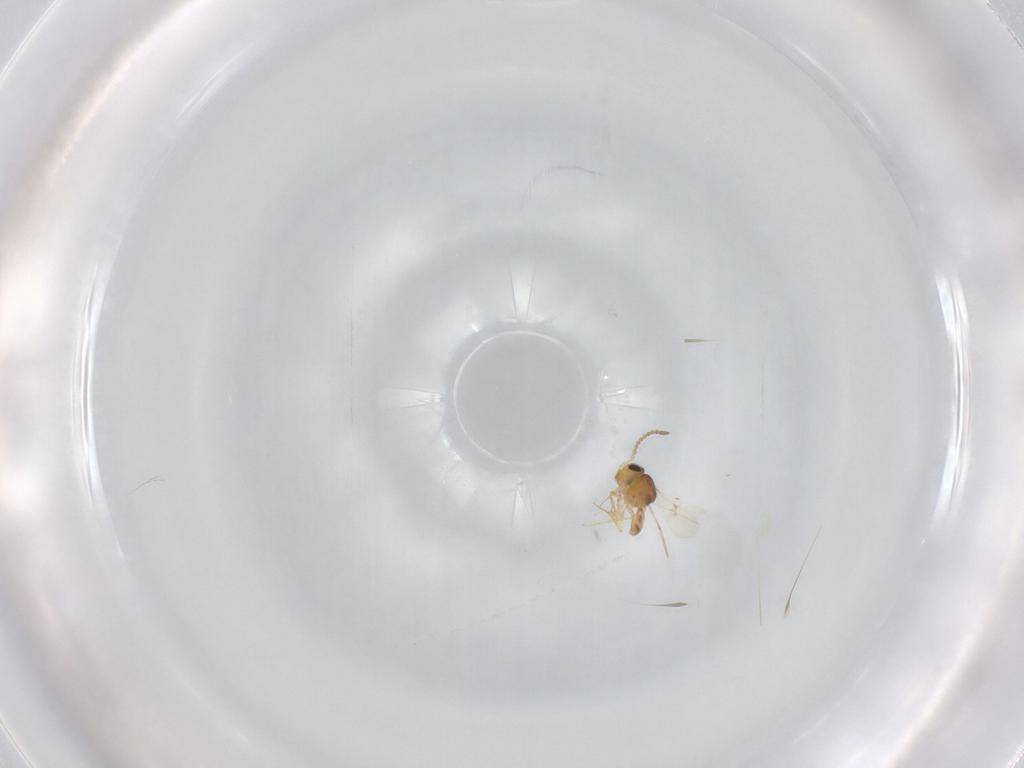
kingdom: Animalia
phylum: Arthropoda
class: Insecta
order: Hymenoptera
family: Scelionidae
